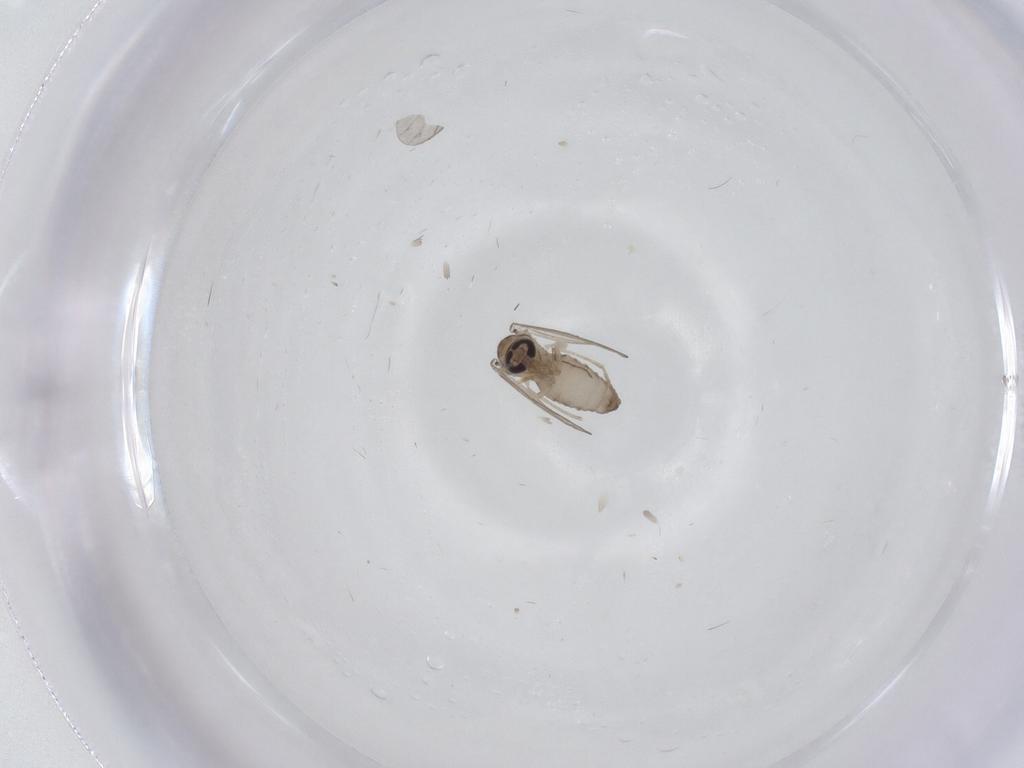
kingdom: Animalia
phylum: Arthropoda
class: Insecta
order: Diptera
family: Psychodidae
